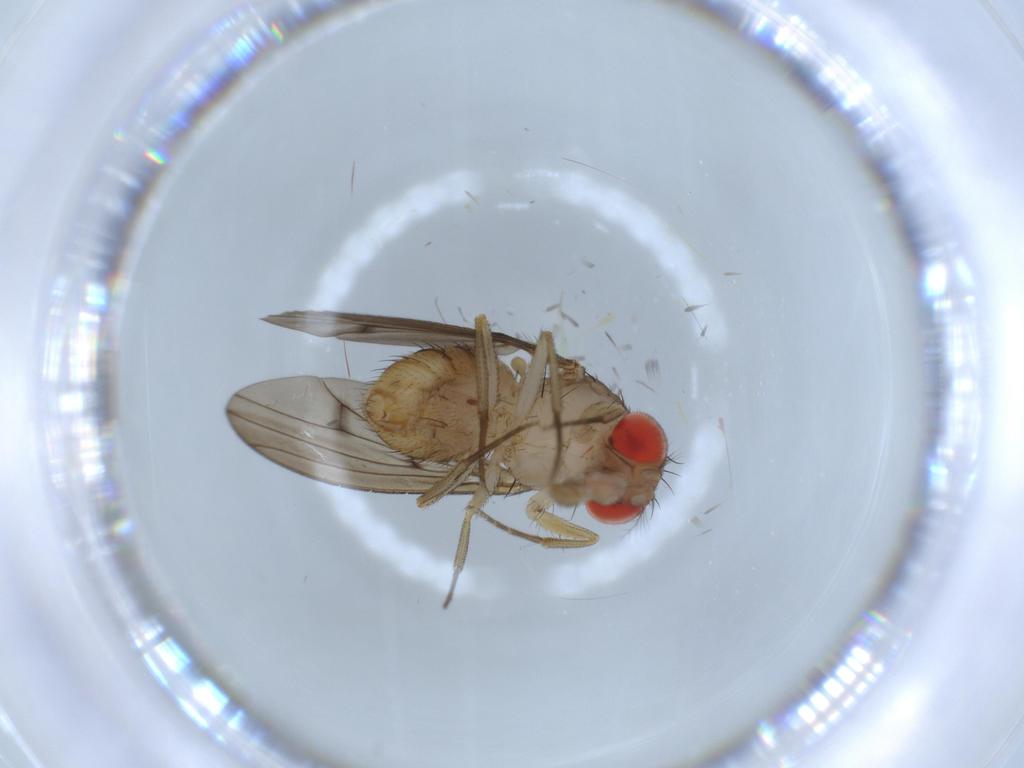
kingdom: Animalia
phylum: Arthropoda
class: Insecta
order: Diptera
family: Drosophilidae
